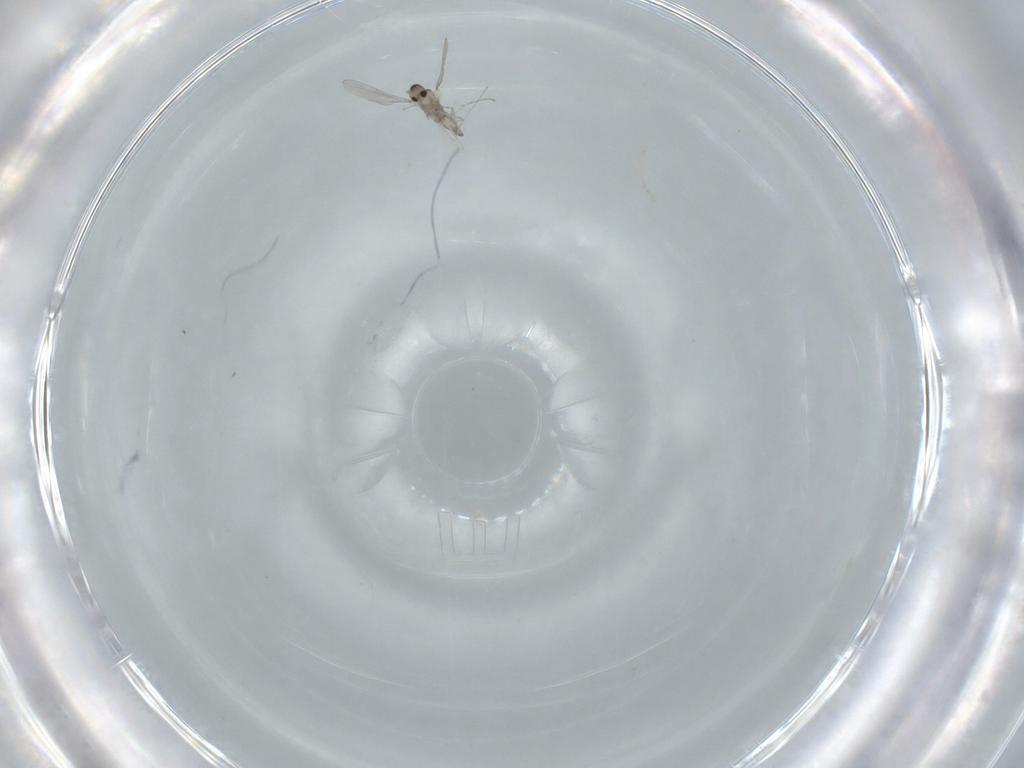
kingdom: Animalia
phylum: Arthropoda
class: Insecta
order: Diptera
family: Cecidomyiidae
